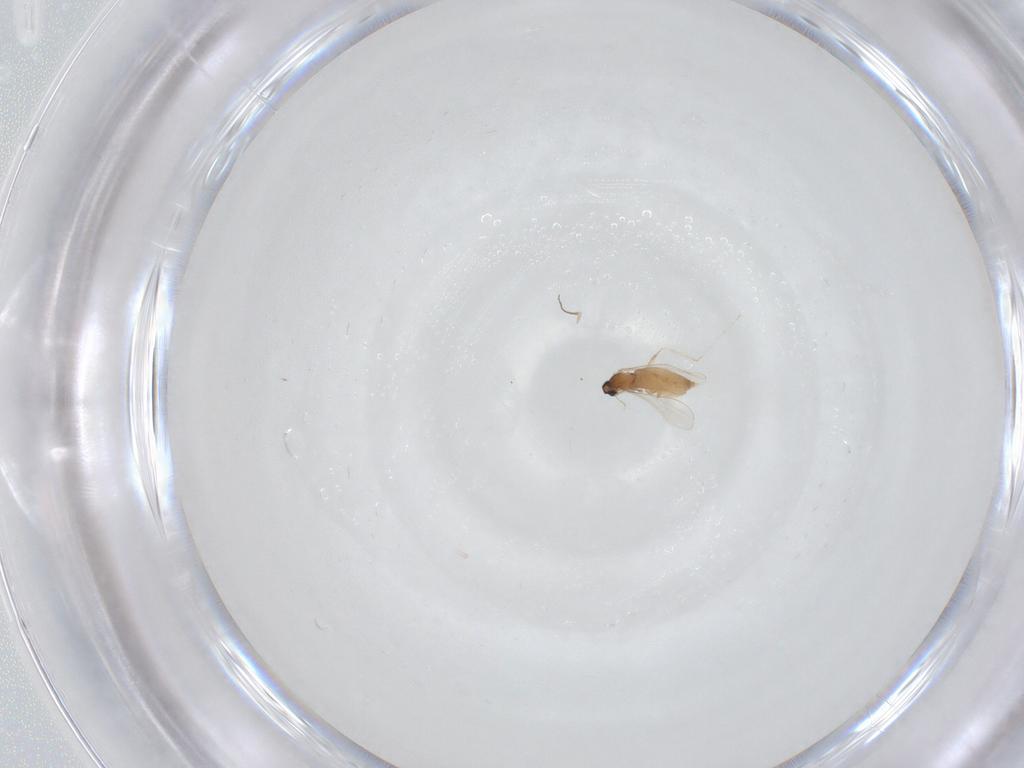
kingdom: Animalia
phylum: Arthropoda
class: Insecta
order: Diptera
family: Cecidomyiidae
